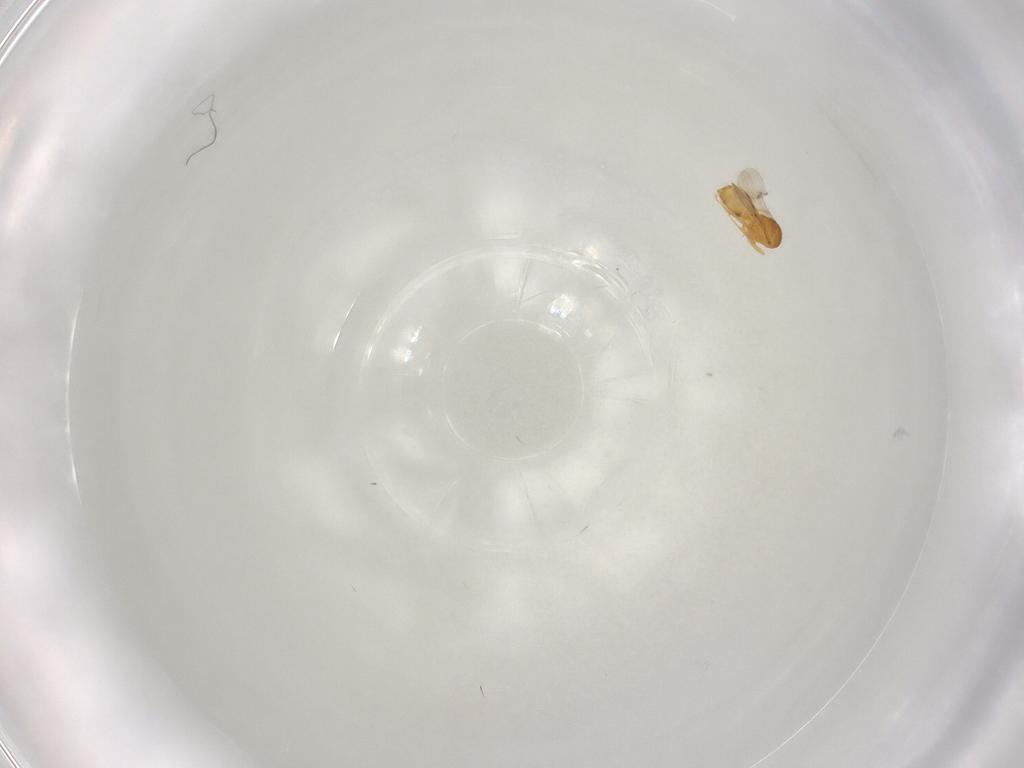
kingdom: Animalia
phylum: Arthropoda
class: Insecta
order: Hymenoptera
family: Scelionidae
